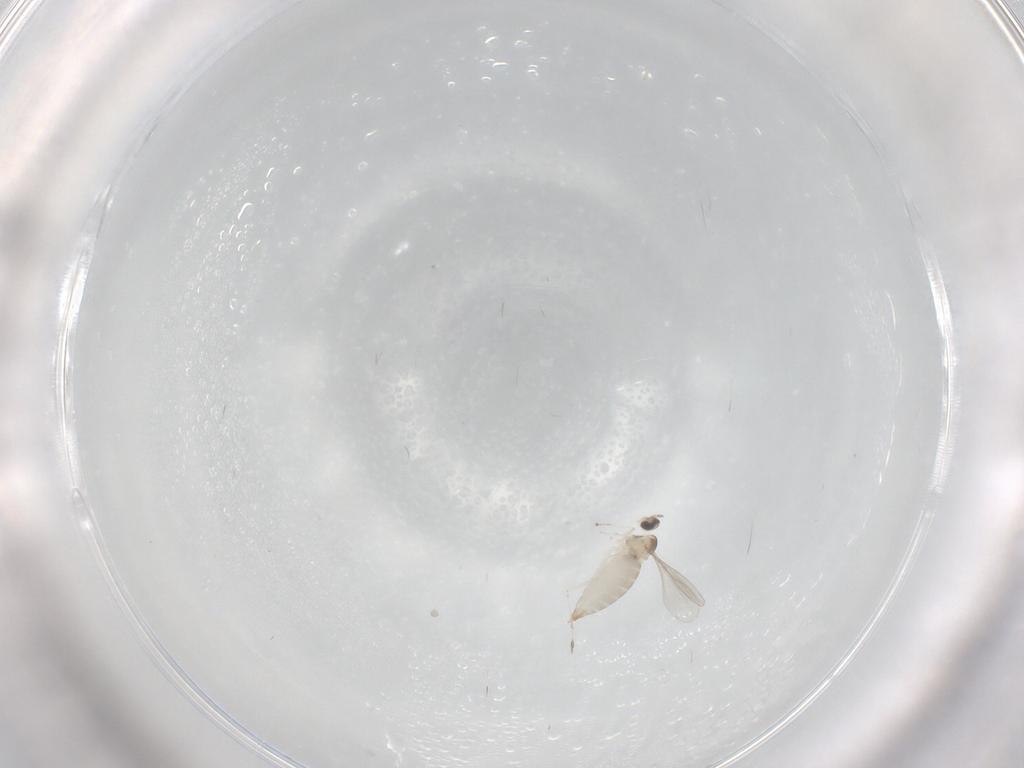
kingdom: Animalia
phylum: Arthropoda
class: Insecta
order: Diptera
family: Cecidomyiidae
